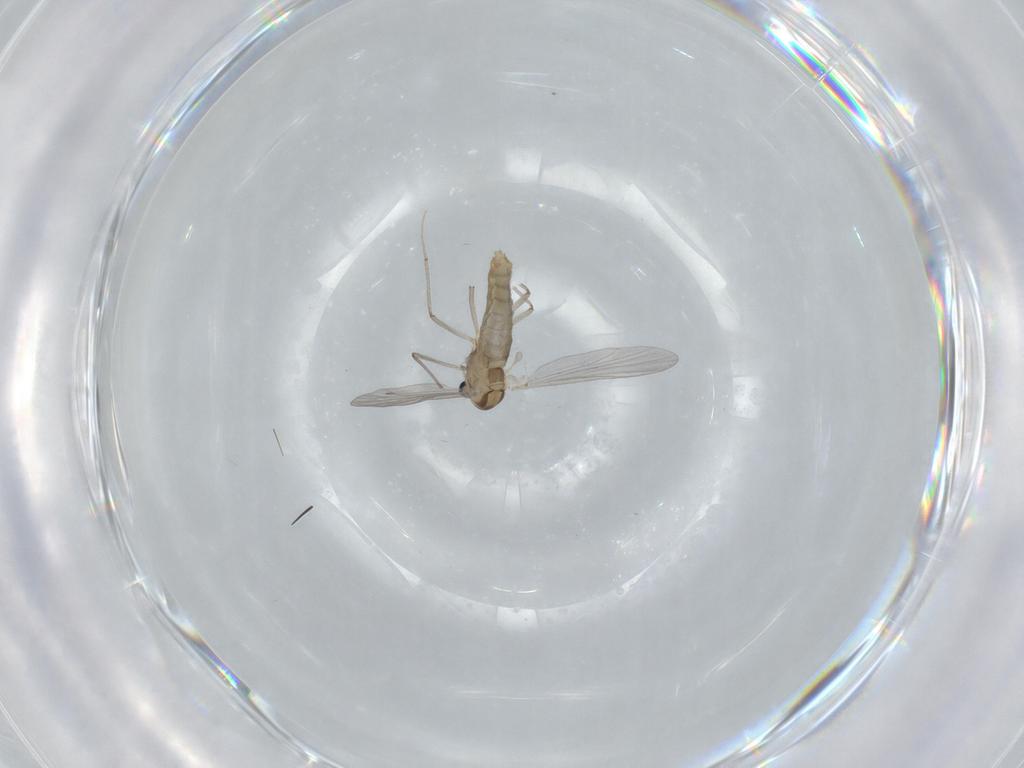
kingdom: Animalia
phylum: Arthropoda
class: Insecta
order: Diptera
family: Chironomidae
